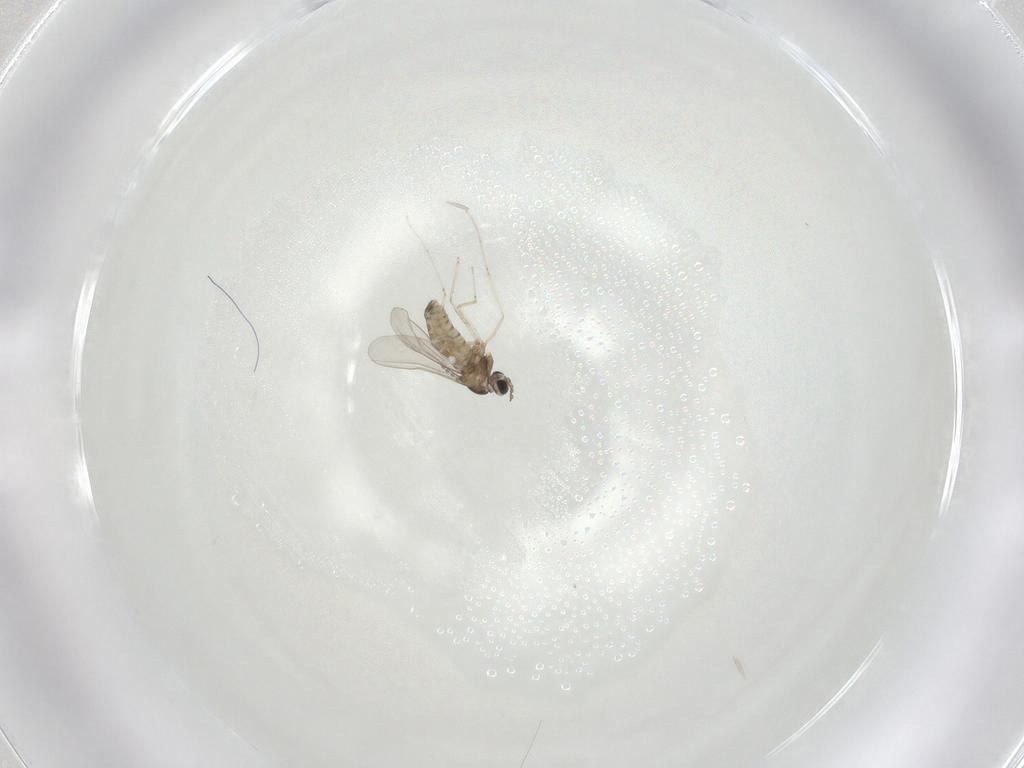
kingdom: Animalia
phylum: Arthropoda
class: Insecta
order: Diptera
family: Cecidomyiidae
